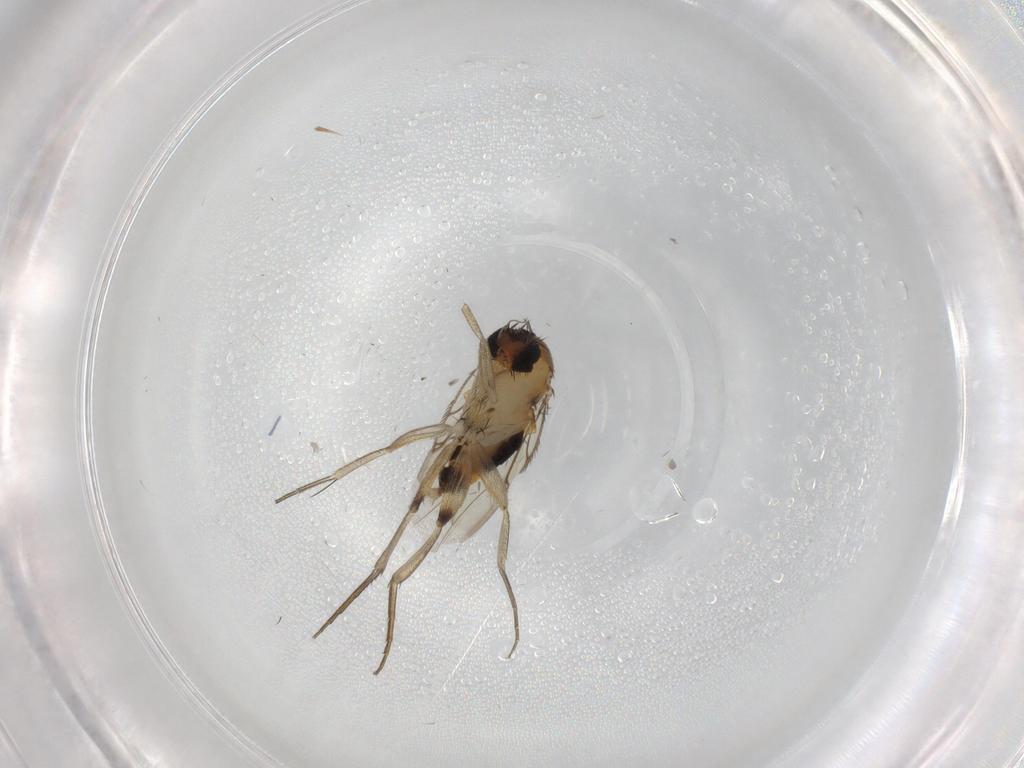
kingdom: Animalia
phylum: Arthropoda
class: Insecta
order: Diptera
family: Phoridae
